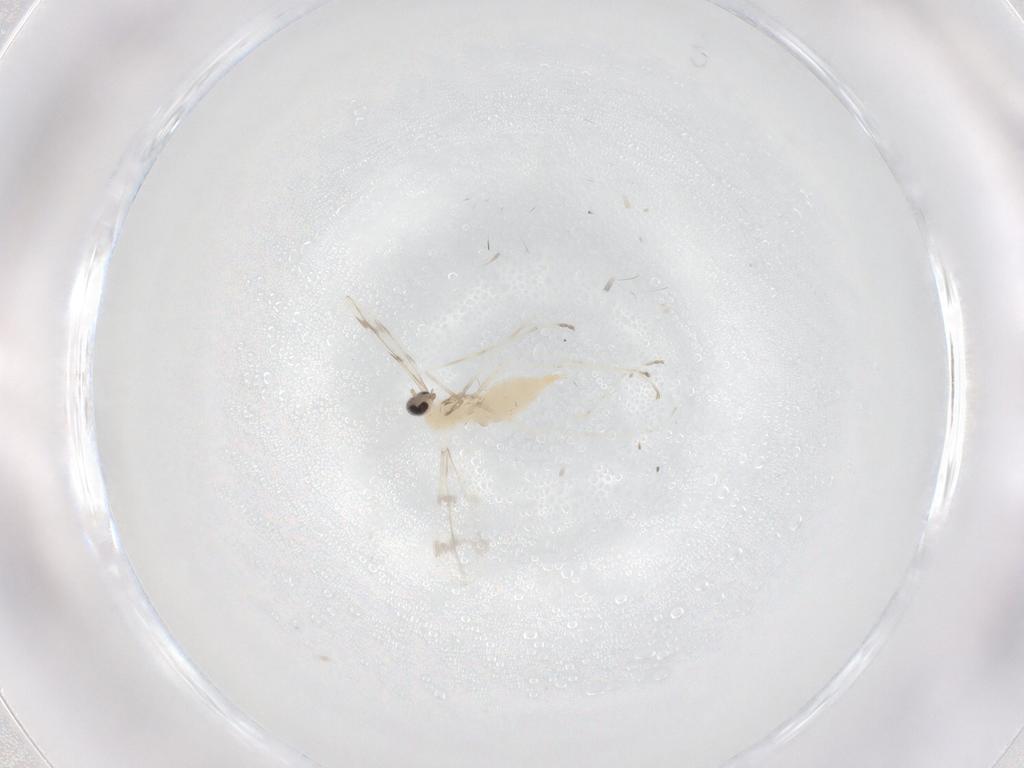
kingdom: Animalia
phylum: Arthropoda
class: Insecta
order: Diptera
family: Cecidomyiidae
